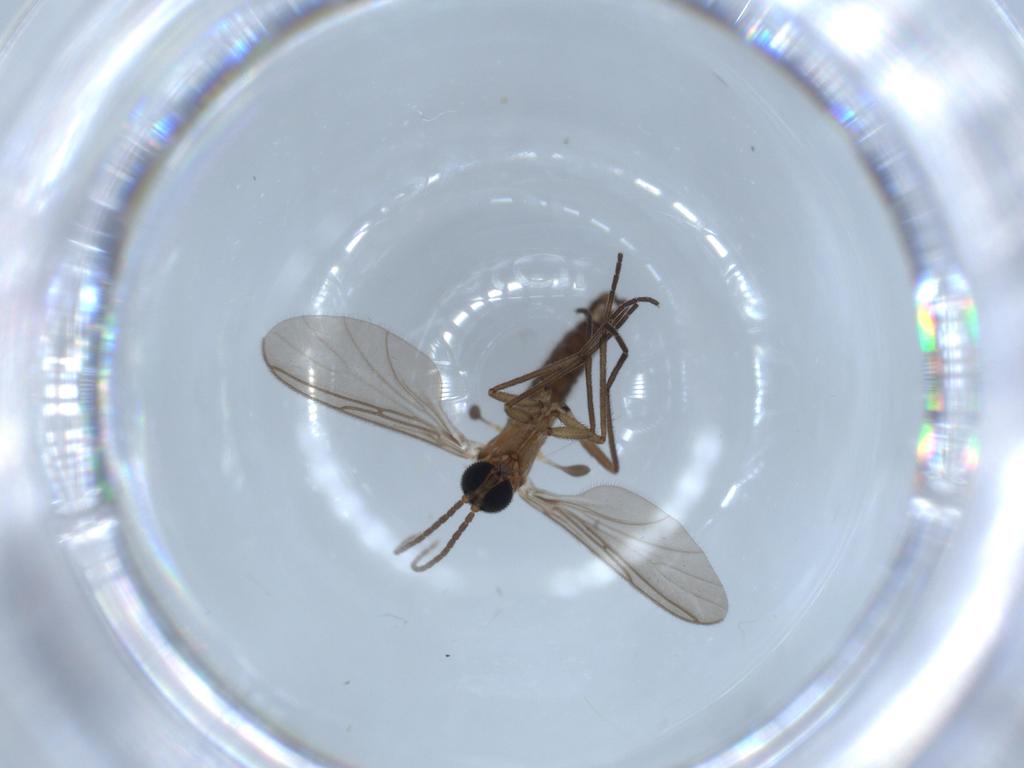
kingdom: Animalia
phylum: Arthropoda
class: Insecta
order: Diptera
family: Sciaridae
